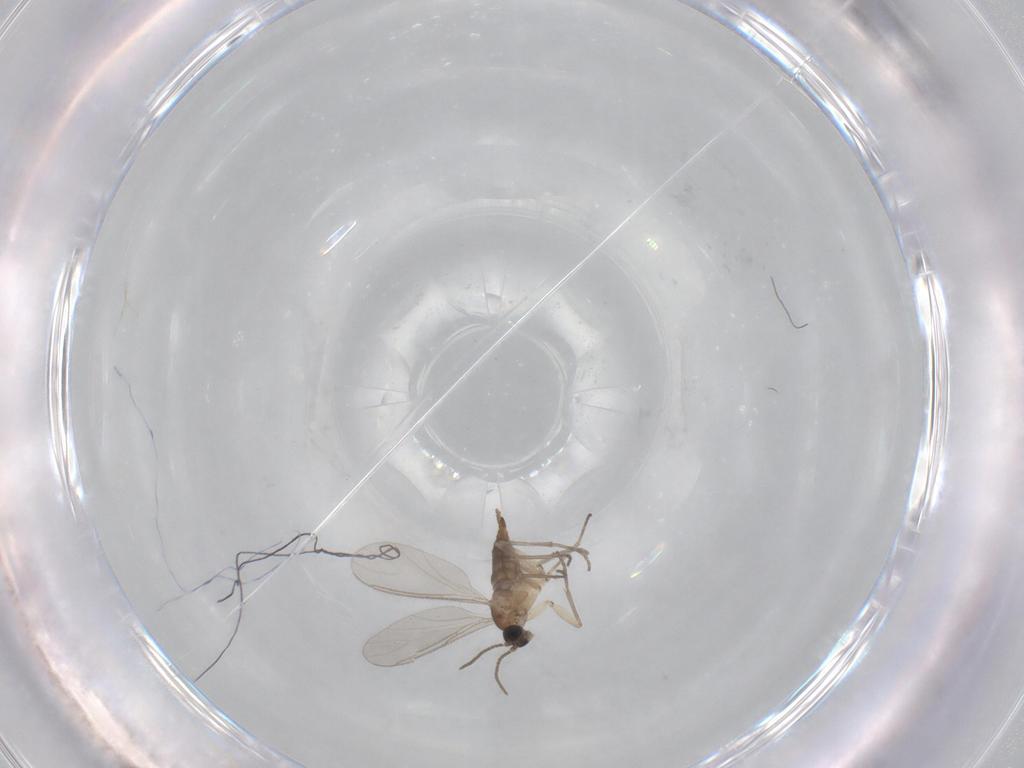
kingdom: Animalia
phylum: Arthropoda
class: Insecta
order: Diptera
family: Sciaridae
